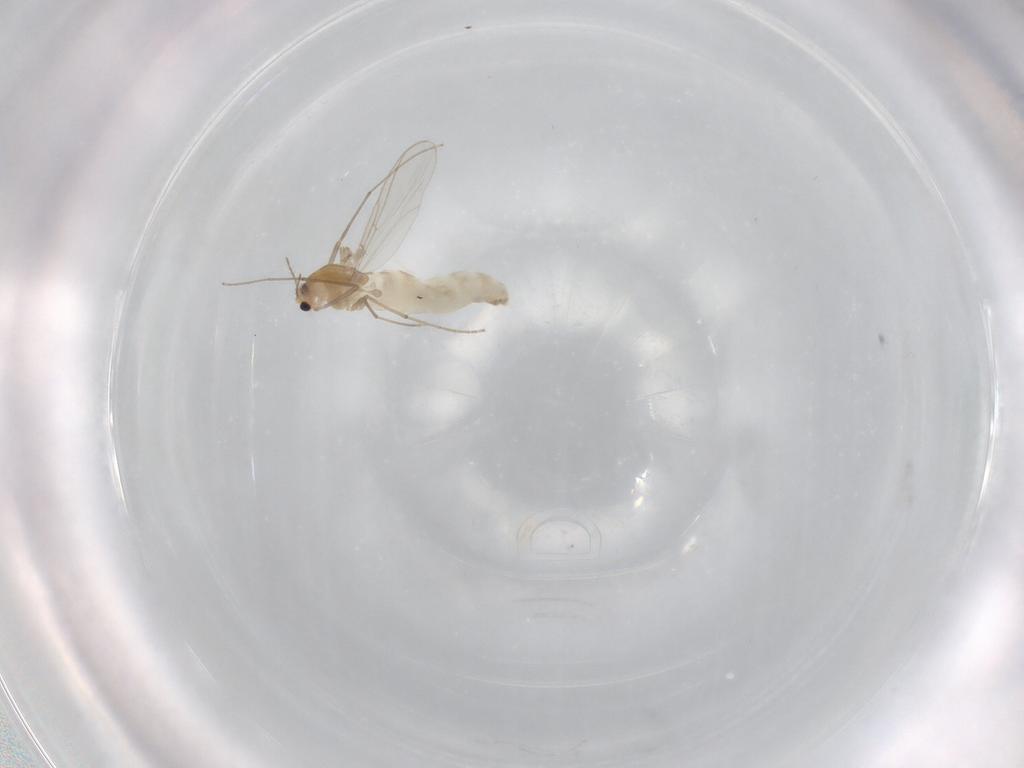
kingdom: Animalia
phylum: Arthropoda
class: Insecta
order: Diptera
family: Chironomidae
